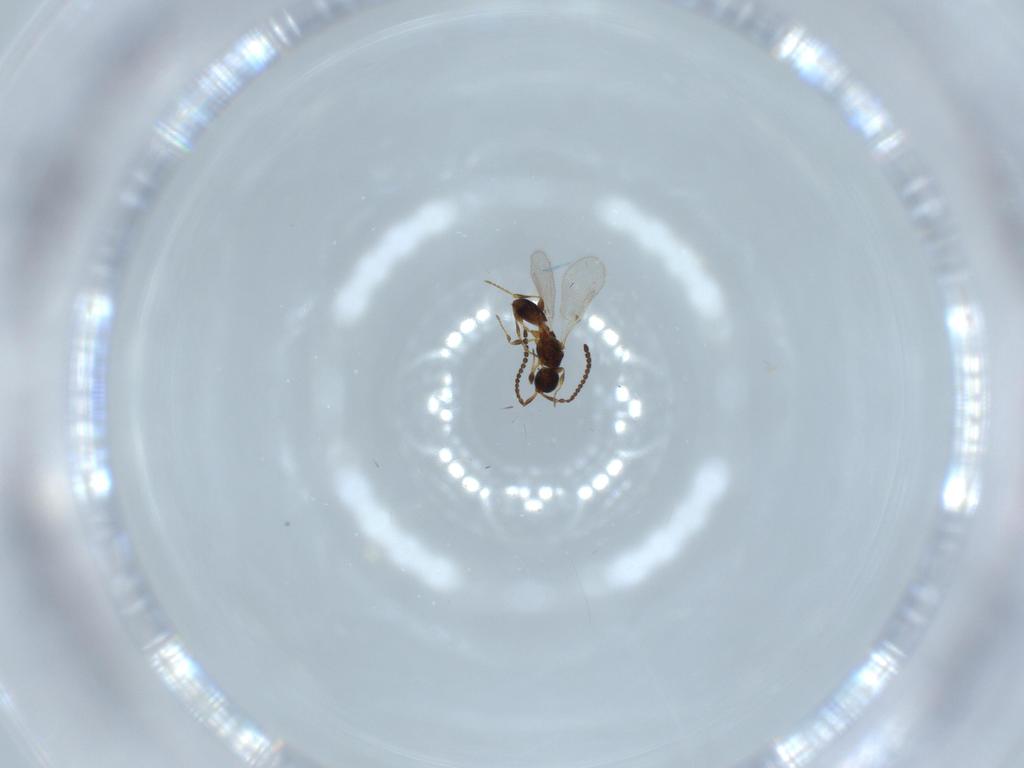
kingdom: Animalia
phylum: Arthropoda
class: Insecta
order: Hymenoptera
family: Diapriidae
